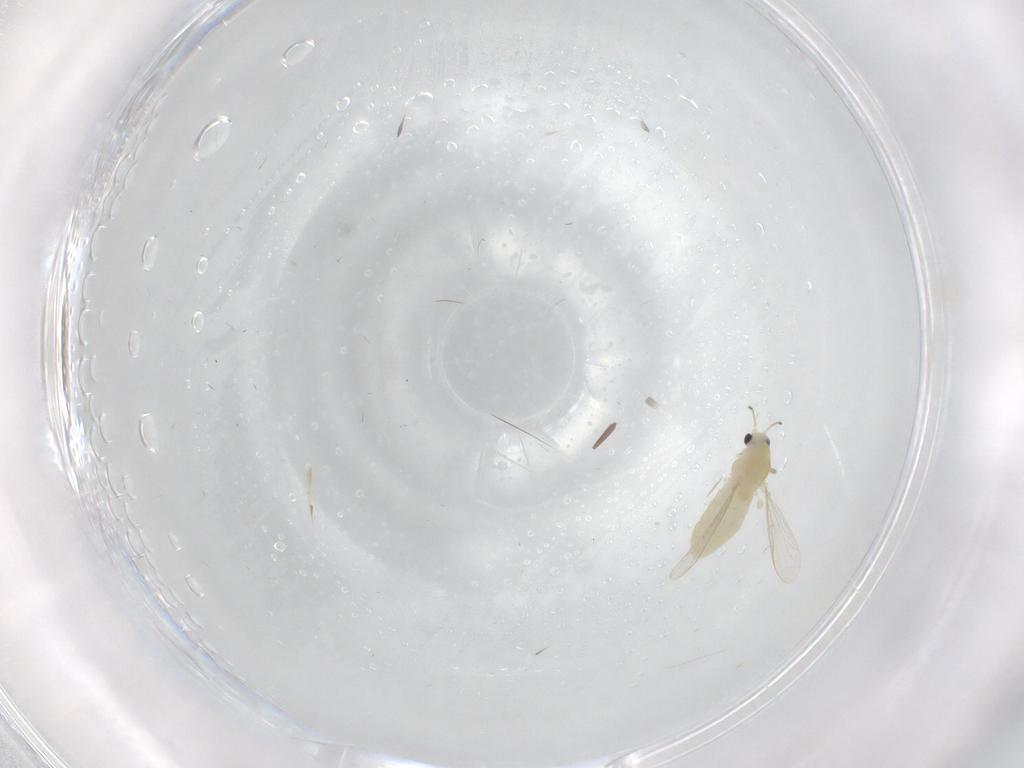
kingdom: Animalia
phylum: Arthropoda
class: Insecta
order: Diptera
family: Chironomidae
